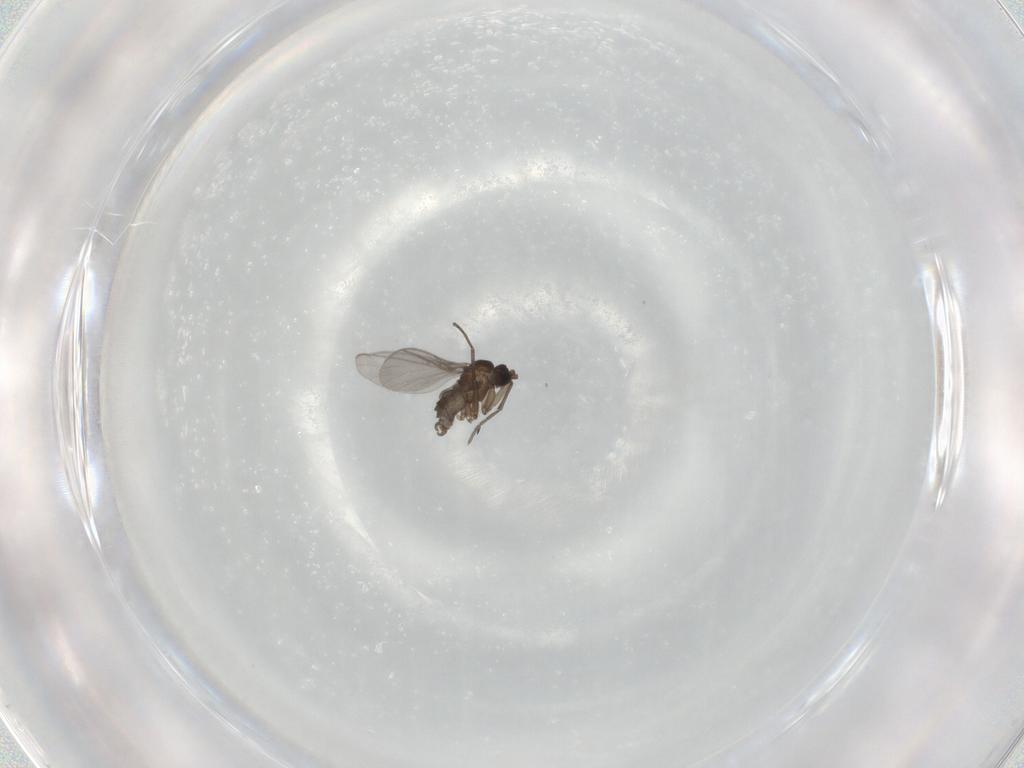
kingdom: Animalia
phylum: Arthropoda
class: Insecta
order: Diptera
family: Sciaridae
